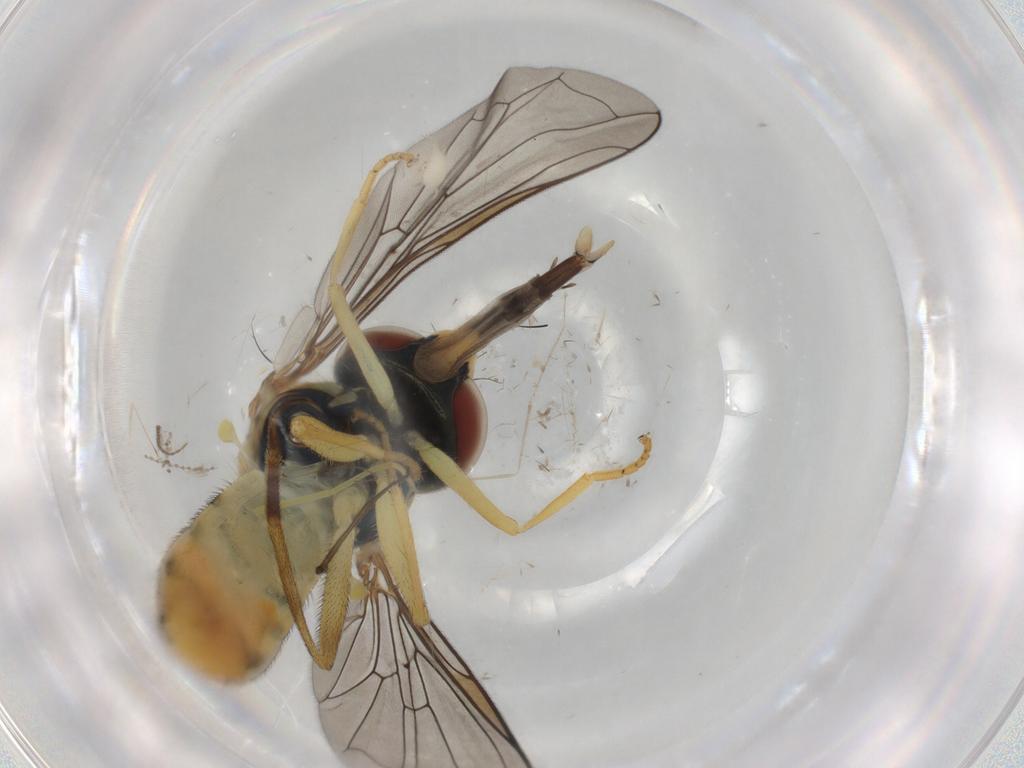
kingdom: Animalia
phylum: Arthropoda
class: Insecta
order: Diptera
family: Syrphidae
